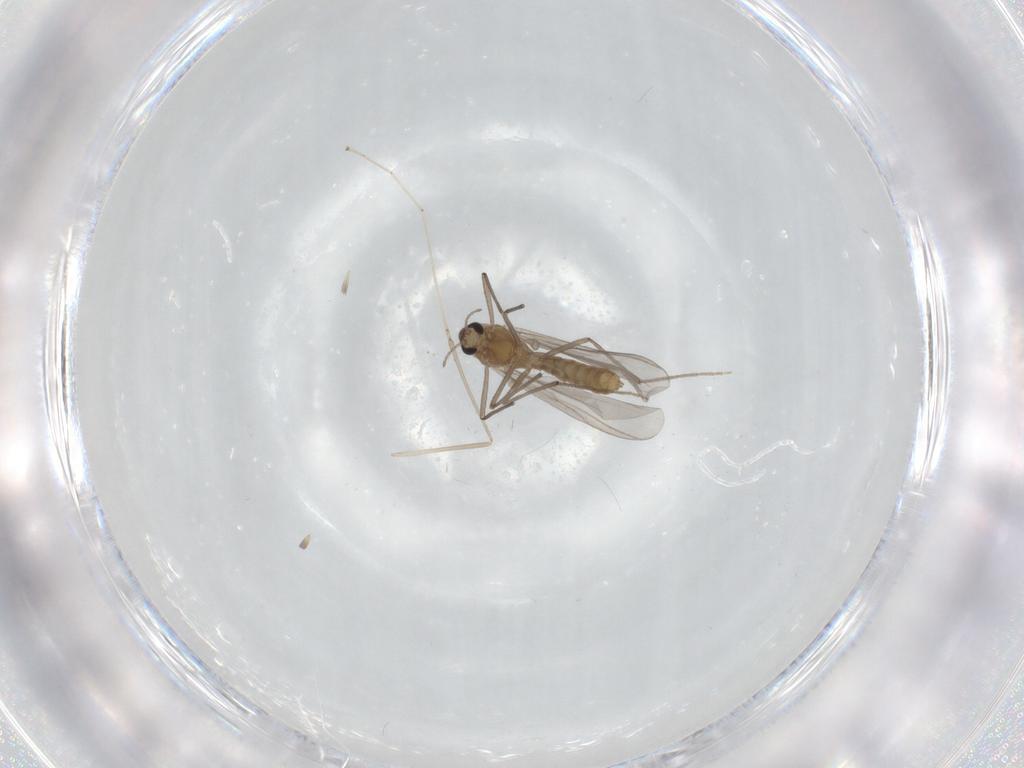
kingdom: Animalia
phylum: Arthropoda
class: Insecta
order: Diptera
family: Chironomidae
